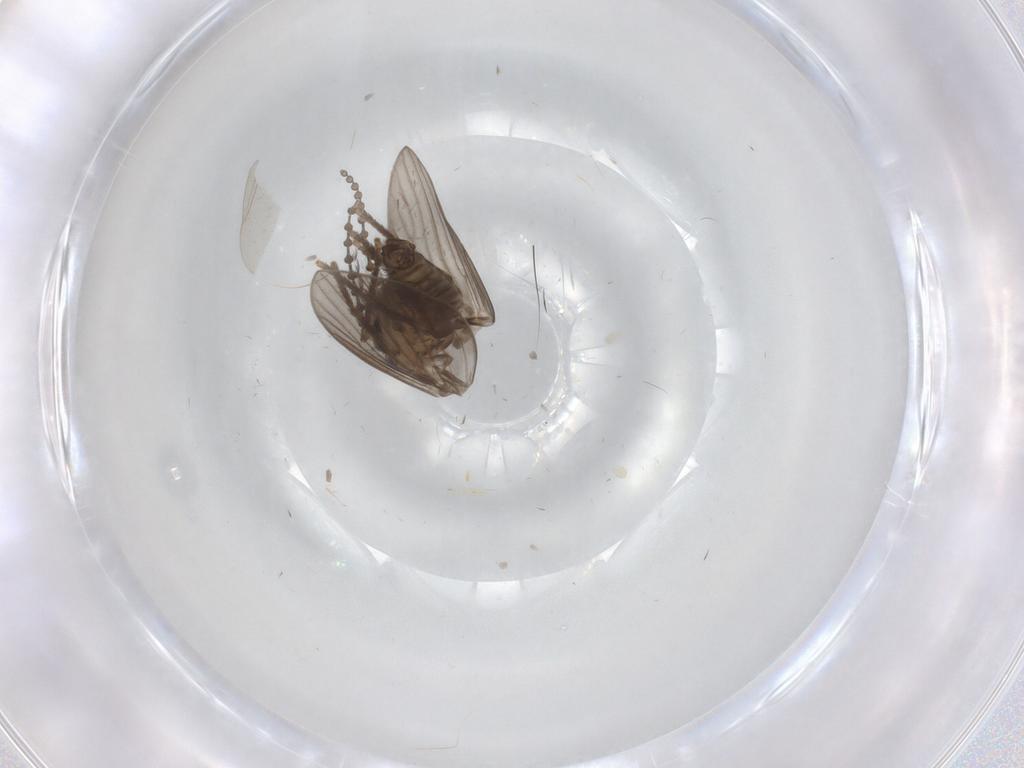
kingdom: Animalia
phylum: Arthropoda
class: Insecta
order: Diptera
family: Psychodidae
